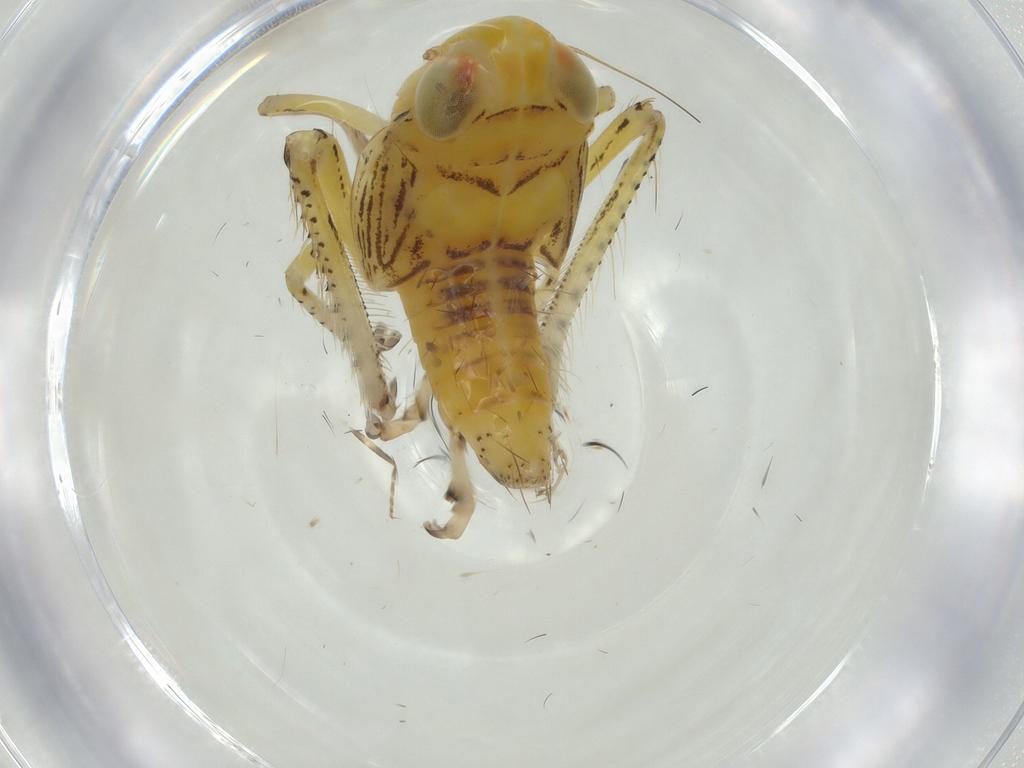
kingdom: Animalia
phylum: Arthropoda
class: Insecta
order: Hemiptera
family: Cicadellidae
